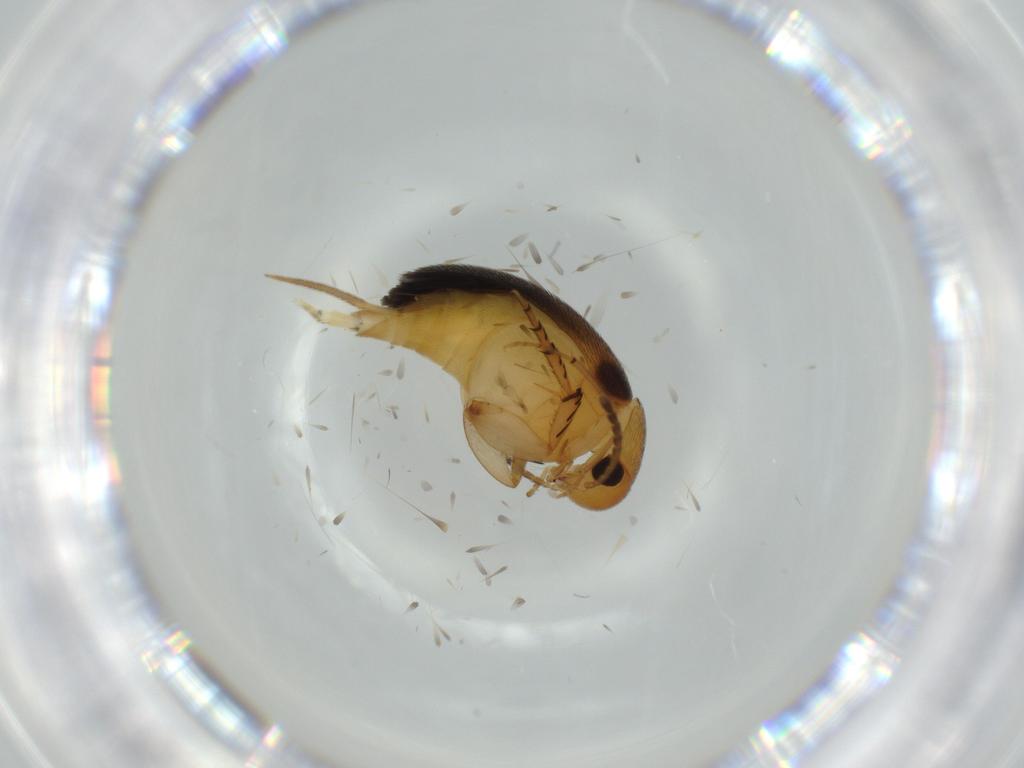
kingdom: Animalia
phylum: Arthropoda
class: Insecta
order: Coleoptera
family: Mordellidae
